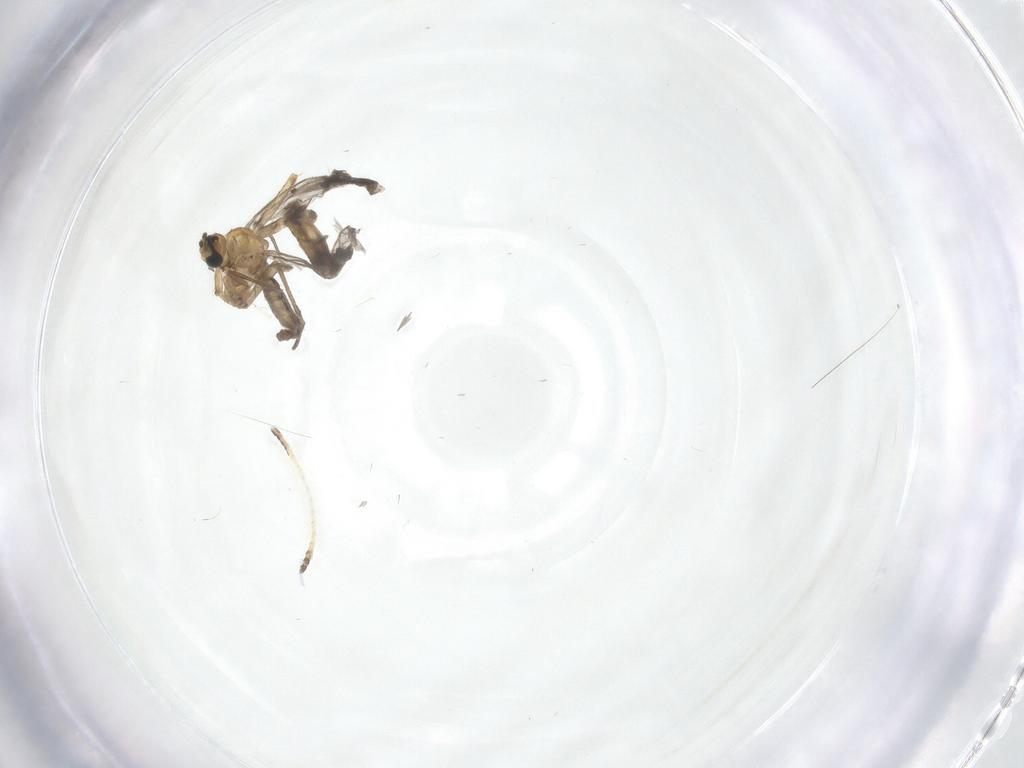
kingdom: Animalia
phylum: Arthropoda
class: Insecta
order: Diptera
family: Sciaridae
